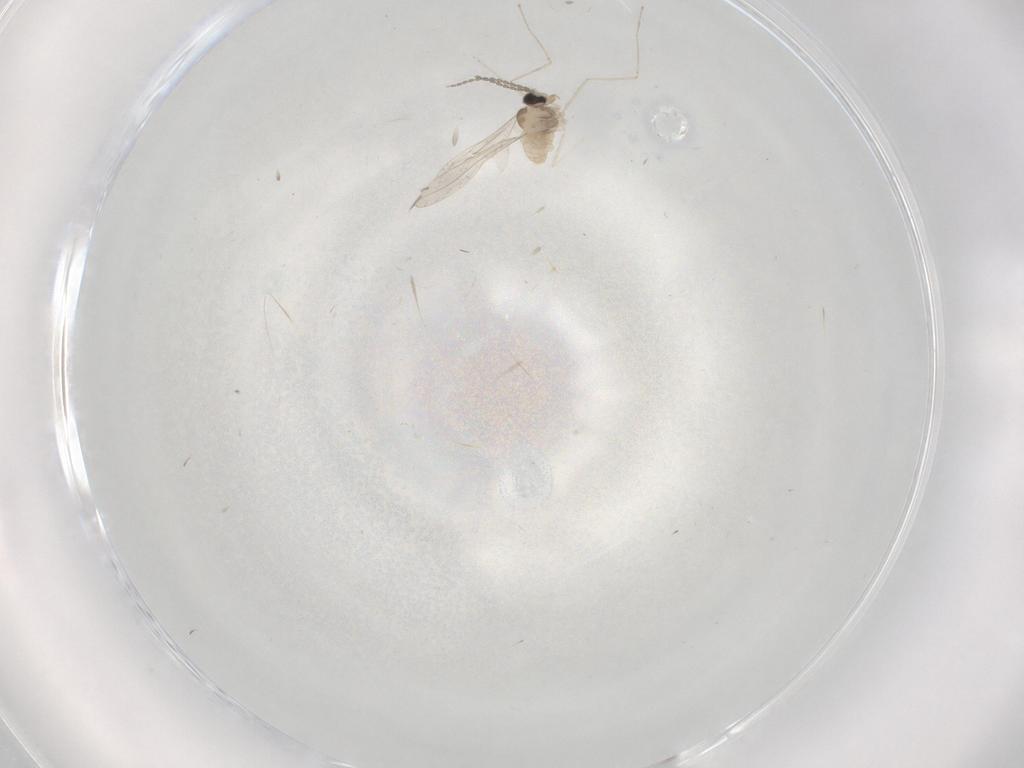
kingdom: Animalia
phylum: Arthropoda
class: Insecta
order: Diptera
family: Cecidomyiidae
